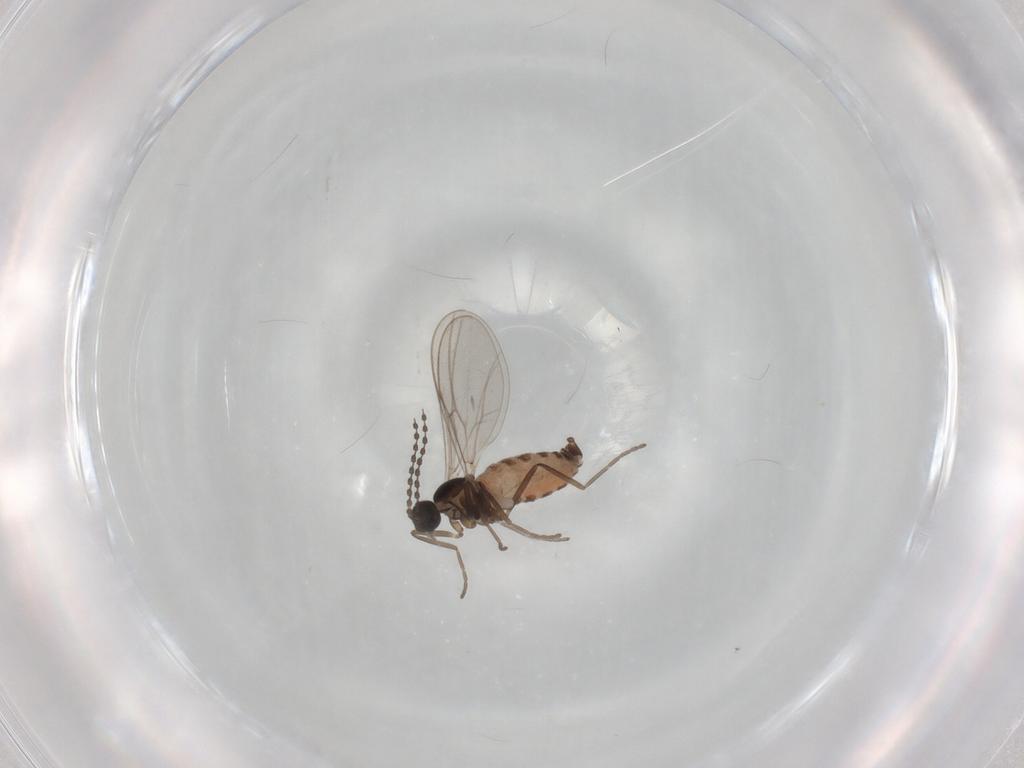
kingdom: Animalia
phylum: Arthropoda
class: Insecta
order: Diptera
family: Cecidomyiidae
